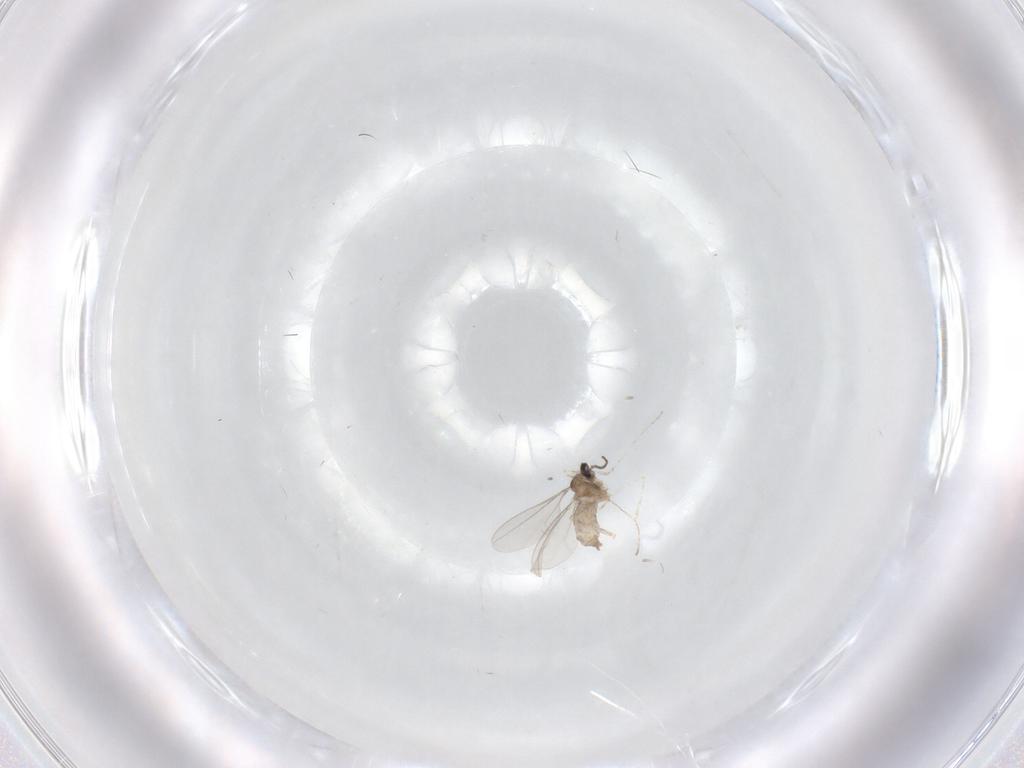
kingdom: Animalia
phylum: Arthropoda
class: Insecta
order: Diptera
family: Cecidomyiidae
